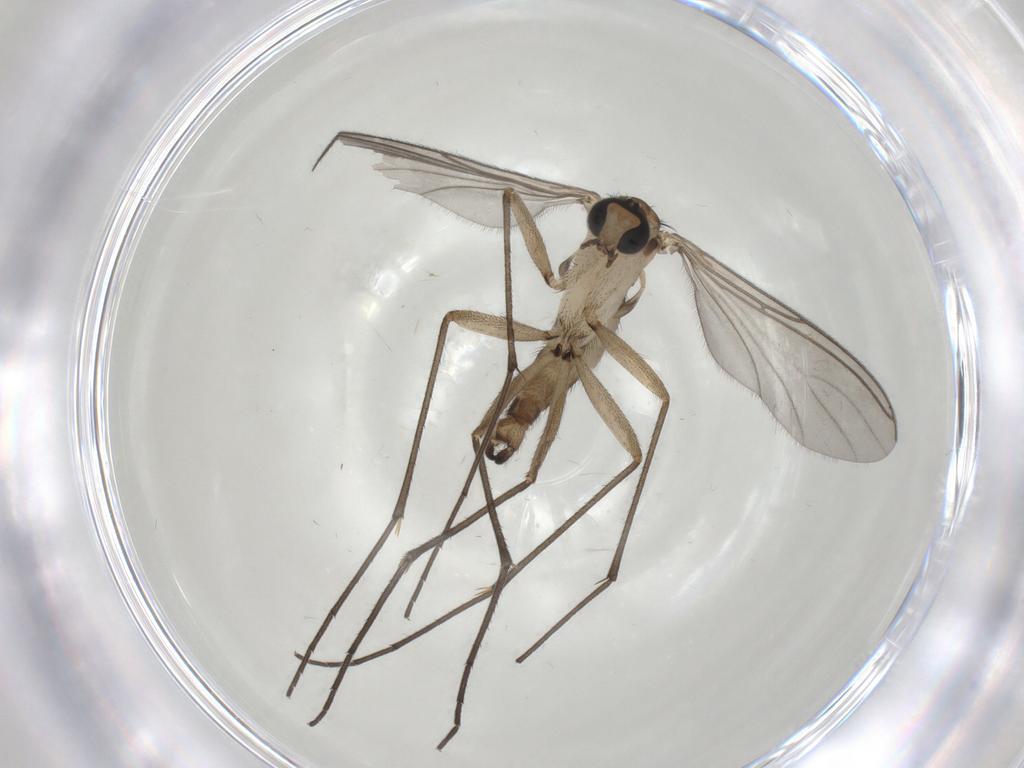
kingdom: Animalia
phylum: Arthropoda
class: Insecta
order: Diptera
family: Sciaridae
